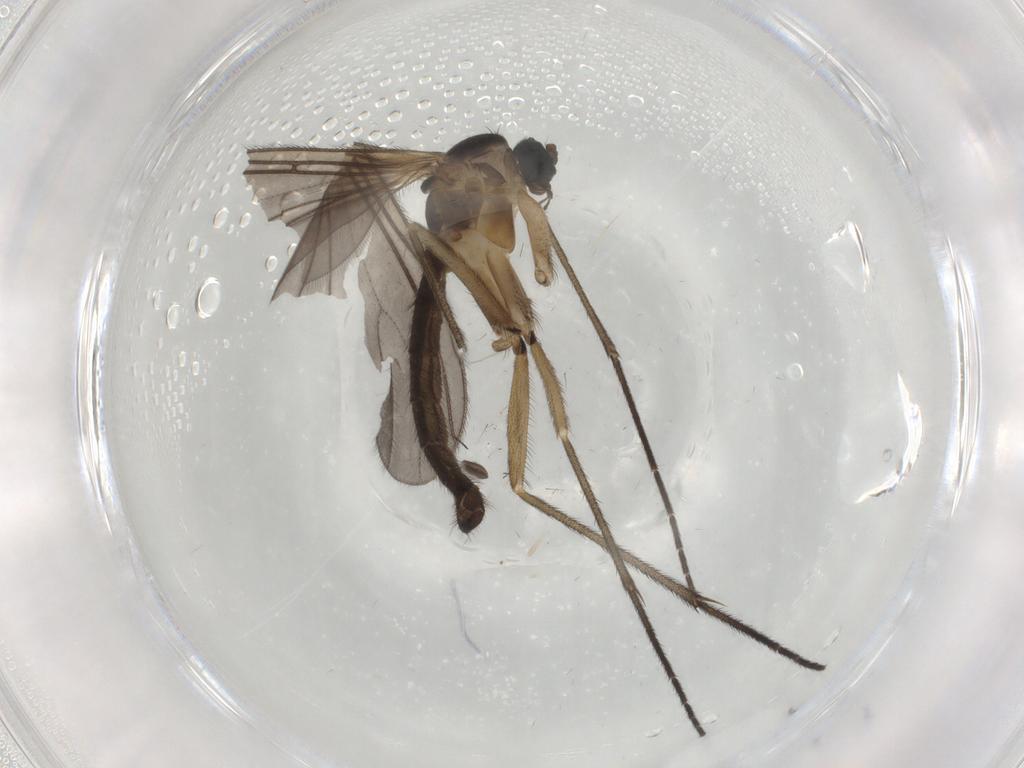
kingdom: Animalia
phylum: Arthropoda
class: Insecta
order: Diptera
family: Sciaridae
